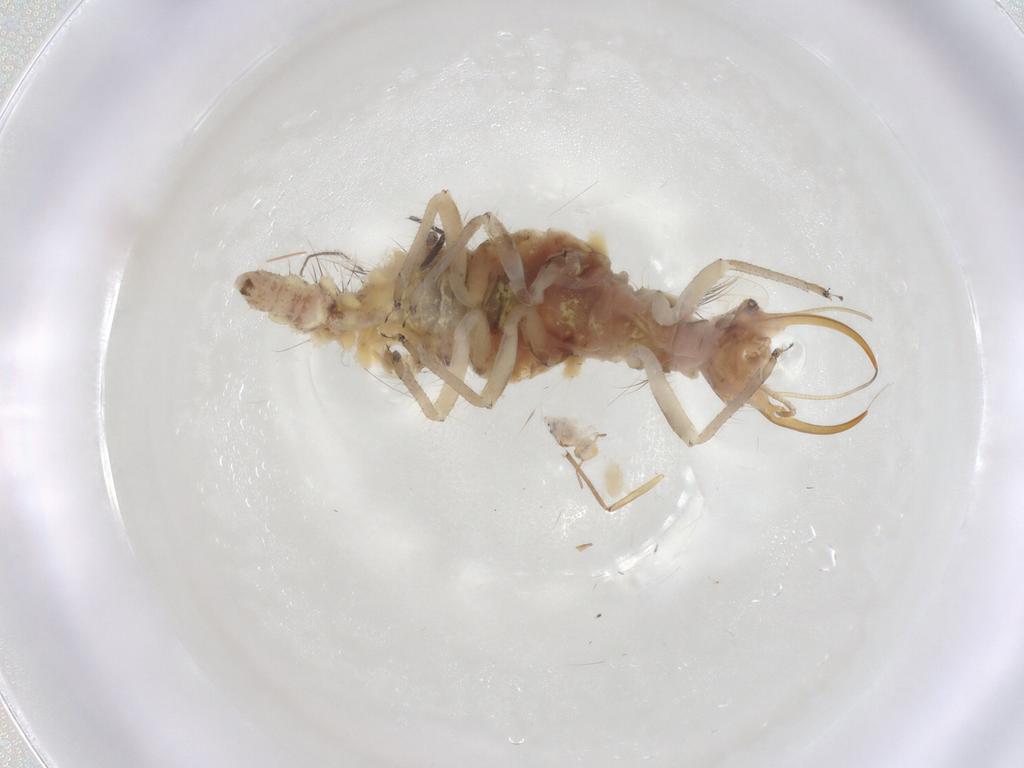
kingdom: Animalia
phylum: Arthropoda
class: Insecta
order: Neuroptera
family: Chrysopidae
